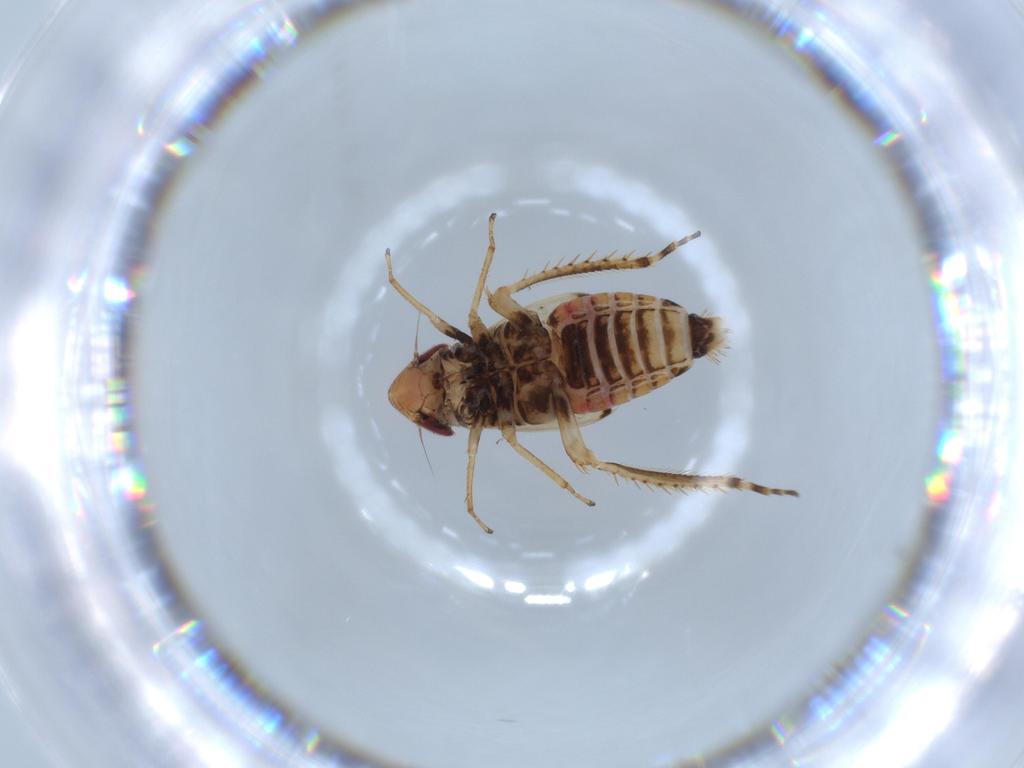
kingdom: Animalia
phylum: Arthropoda
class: Insecta
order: Hemiptera
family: Cicadellidae
